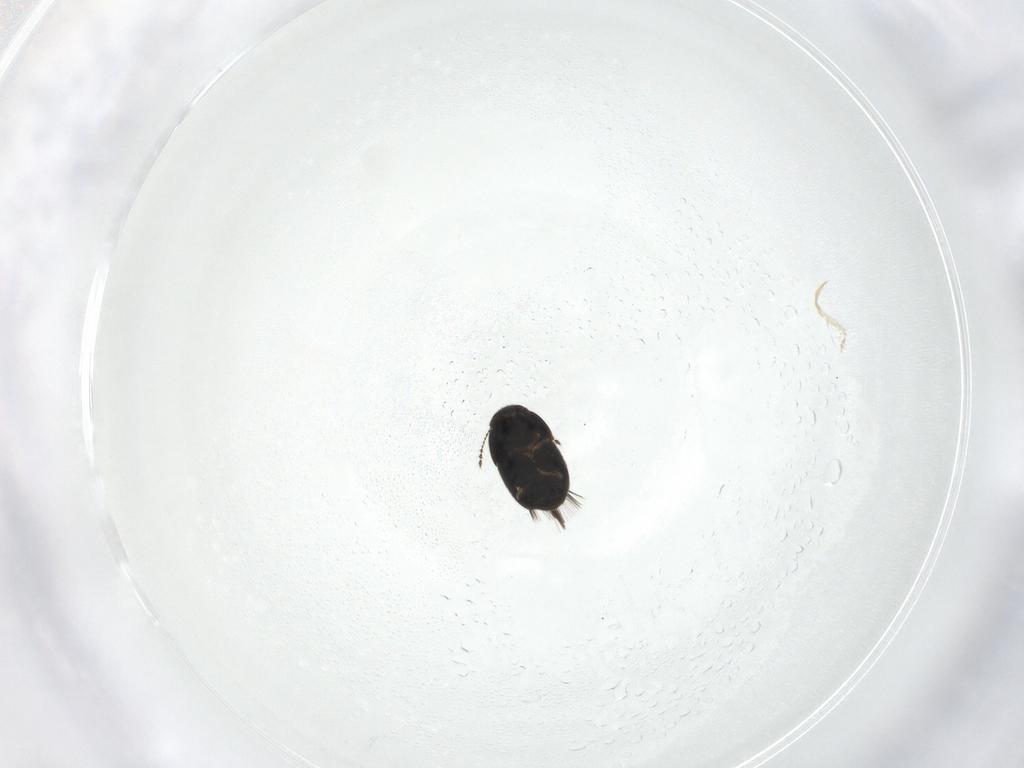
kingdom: Animalia
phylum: Arthropoda
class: Insecta
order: Coleoptera
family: Ptiliidae
